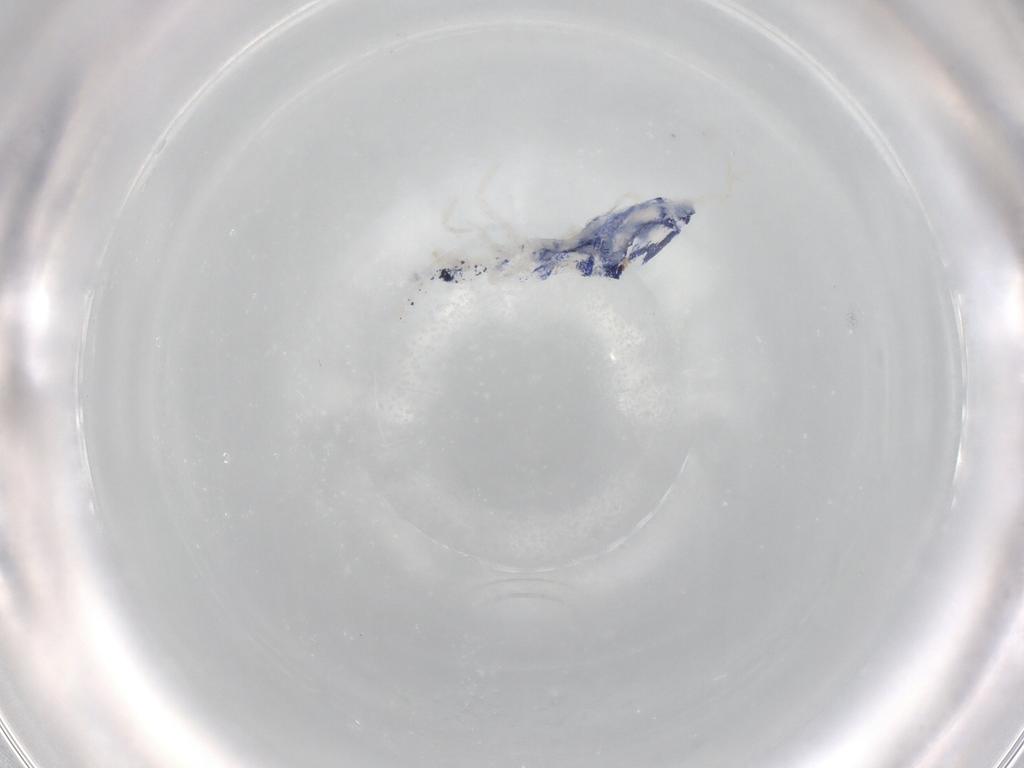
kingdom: Animalia
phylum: Arthropoda
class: Collembola
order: Entomobryomorpha
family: Entomobryidae
